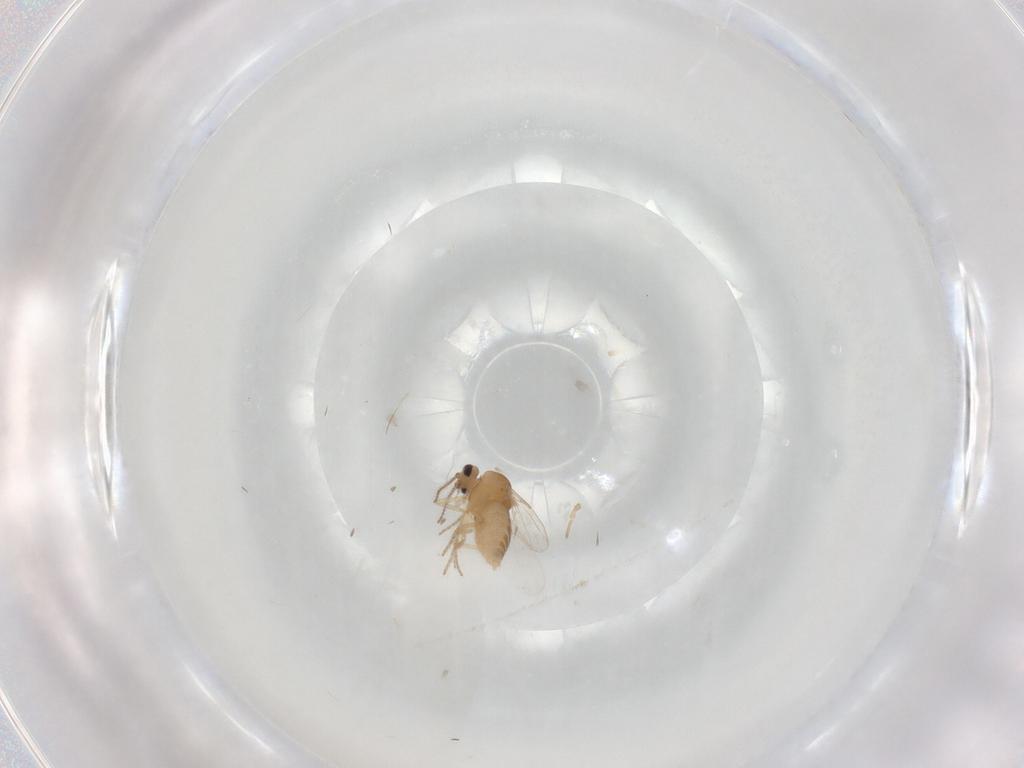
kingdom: Animalia
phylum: Arthropoda
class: Insecta
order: Diptera
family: Ceratopogonidae
